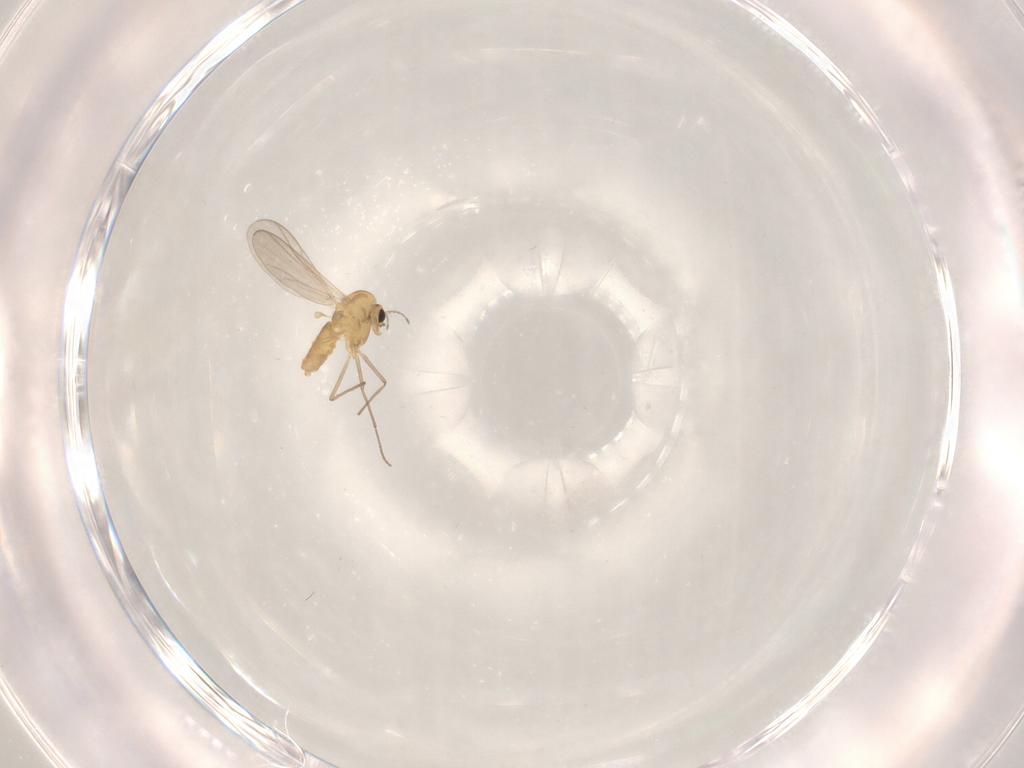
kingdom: Animalia
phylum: Arthropoda
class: Insecta
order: Diptera
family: Chironomidae
